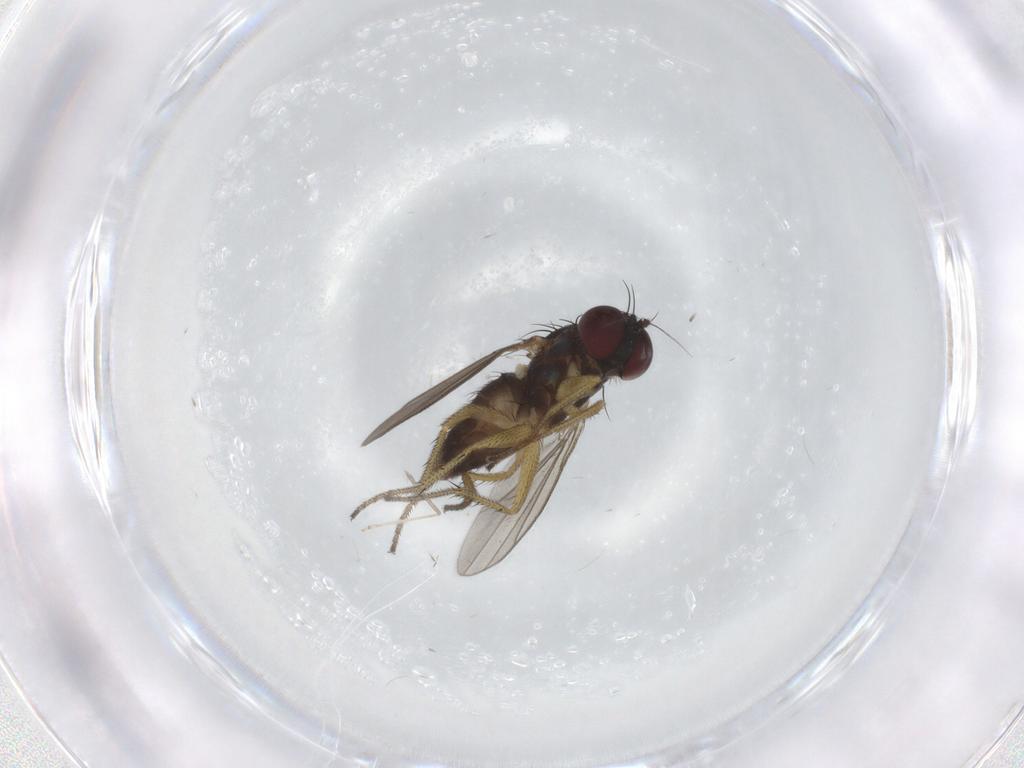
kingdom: Animalia
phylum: Arthropoda
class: Insecta
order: Diptera
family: Dolichopodidae
